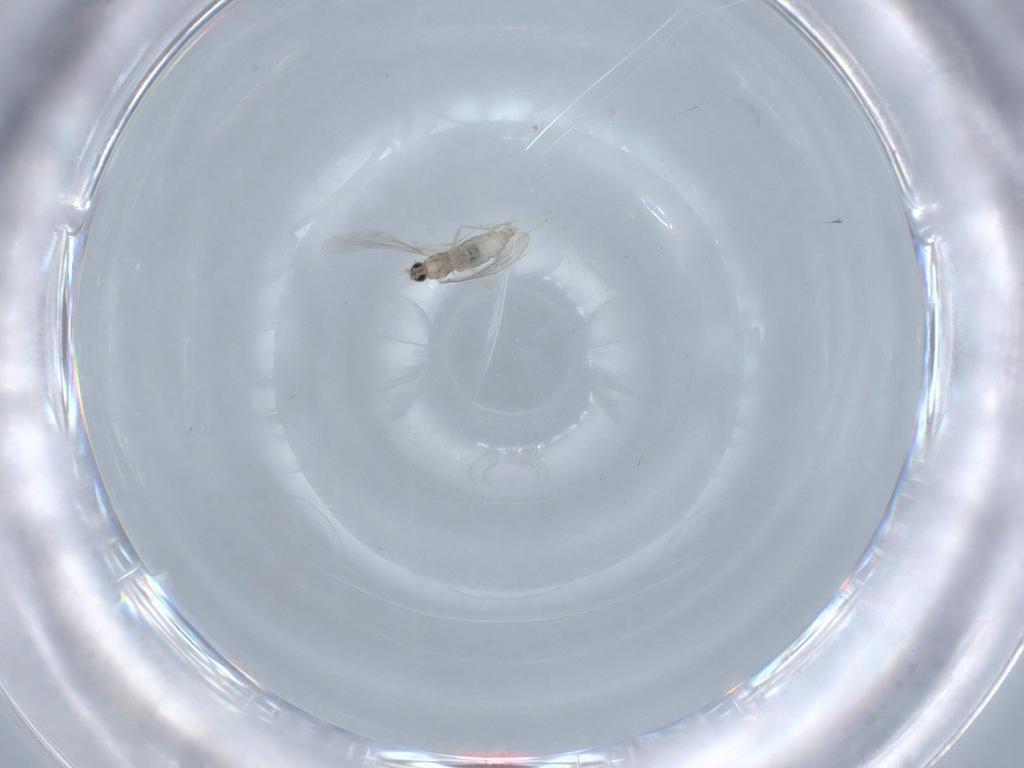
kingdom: Animalia
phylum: Arthropoda
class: Insecta
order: Diptera
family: Cecidomyiidae
